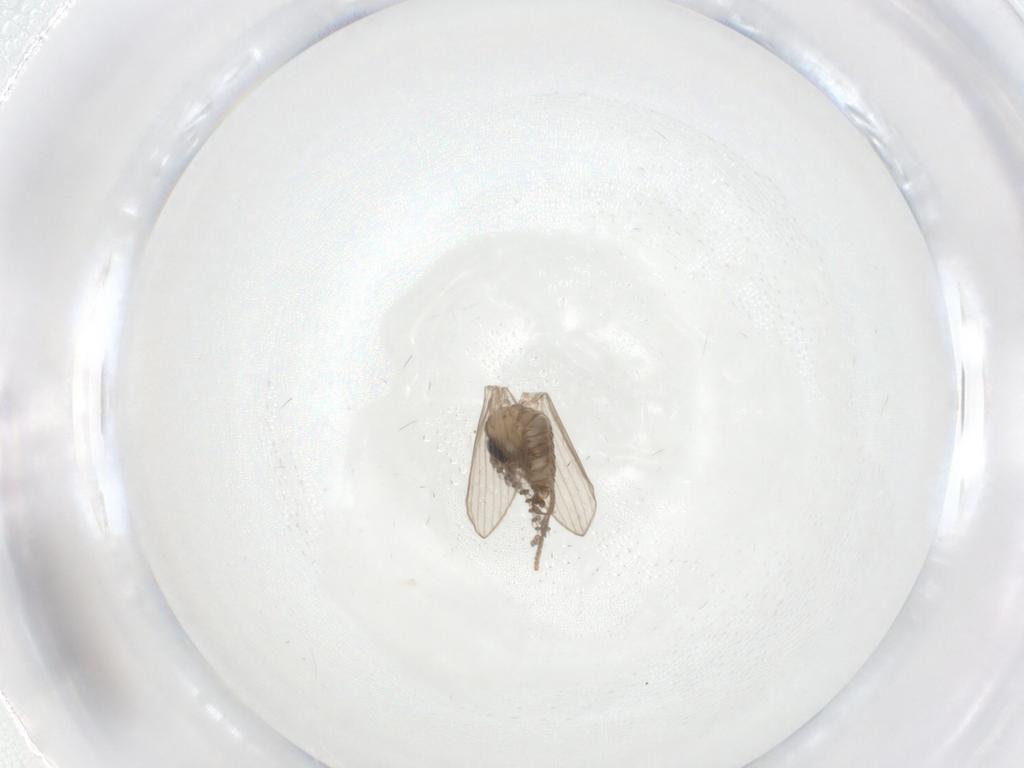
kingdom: Animalia
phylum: Arthropoda
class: Insecta
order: Diptera
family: Psychodidae
